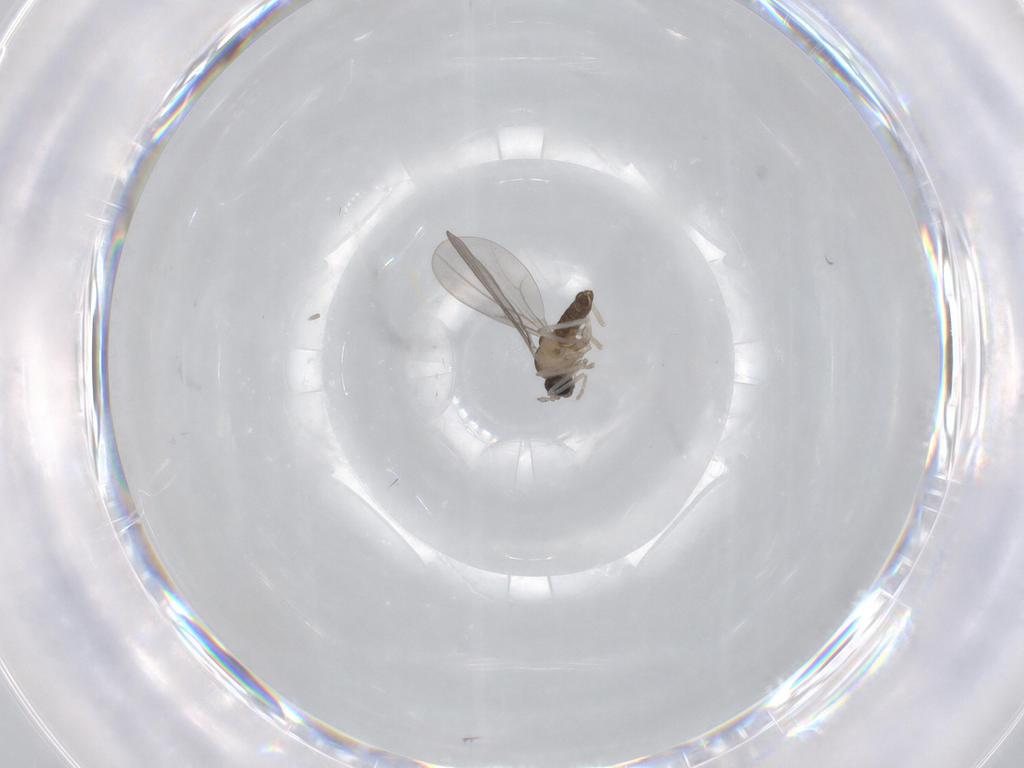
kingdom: Animalia
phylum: Arthropoda
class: Insecta
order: Diptera
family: Cecidomyiidae
